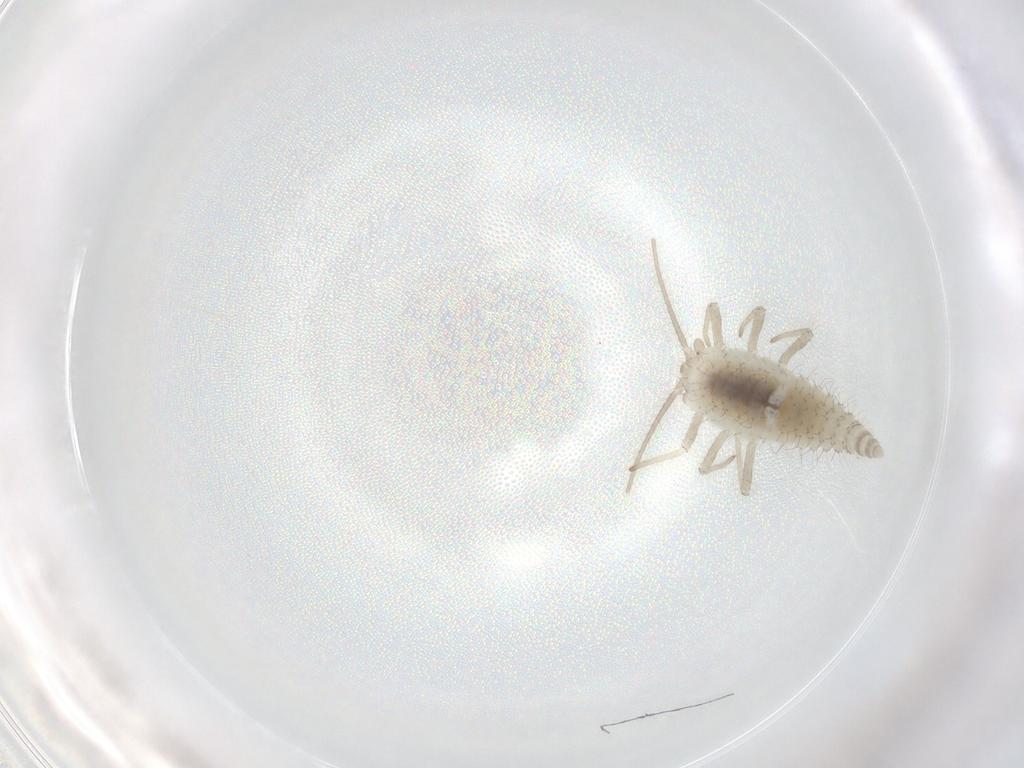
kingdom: Animalia
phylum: Arthropoda
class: Insecta
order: Neuroptera
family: Coniopterygidae
